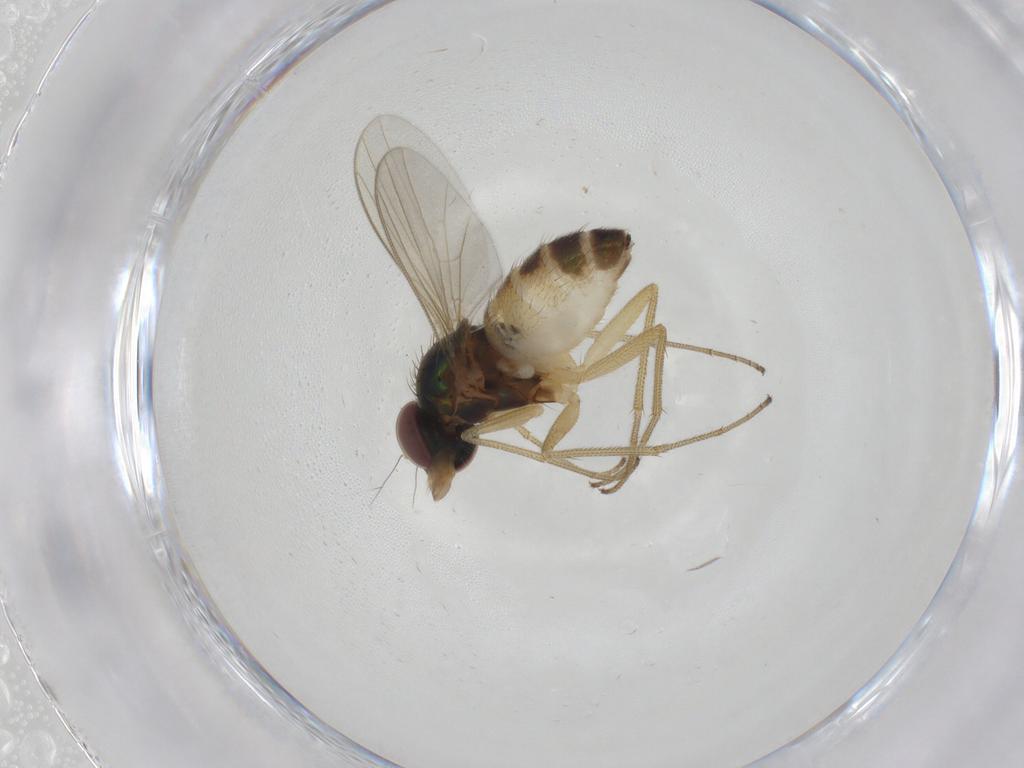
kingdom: Animalia
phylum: Arthropoda
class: Insecta
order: Diptera
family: Dolichopodidae
